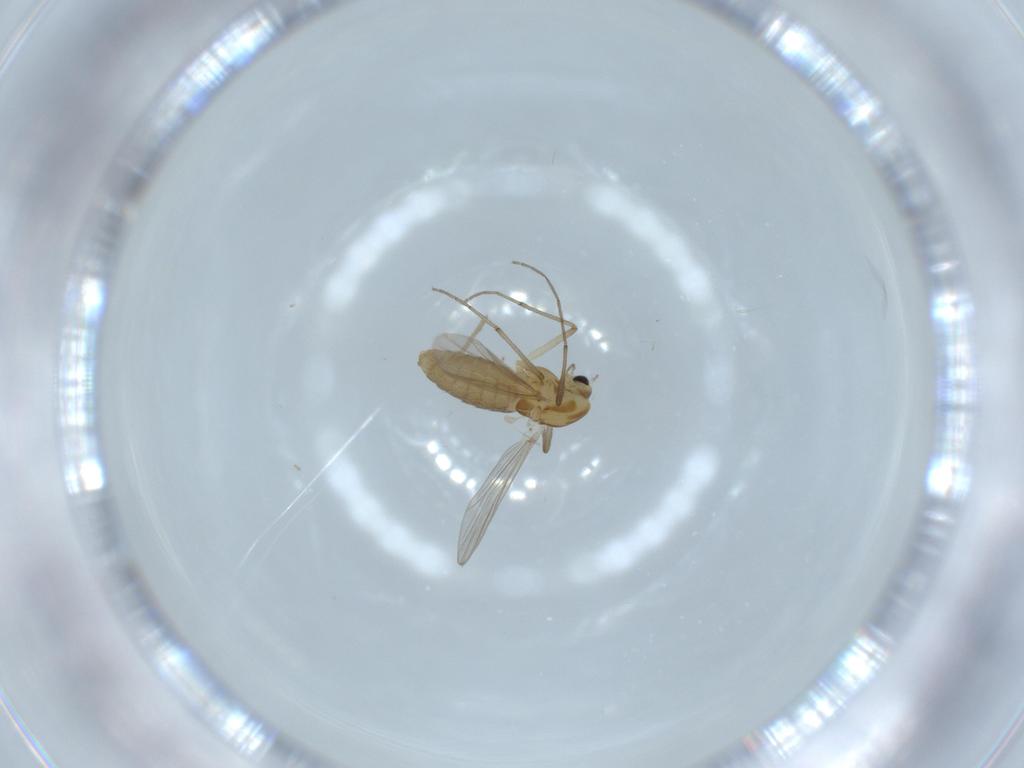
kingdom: Animalia
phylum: Arthropoda
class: Insecta
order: Diptera
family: Chironomidae
